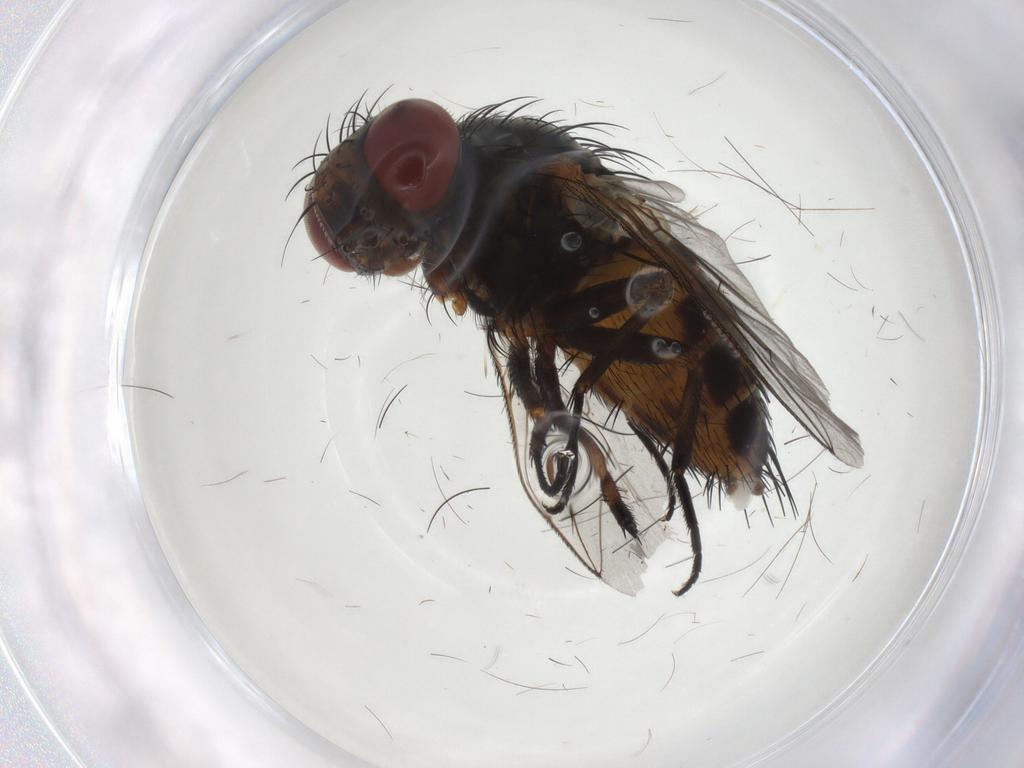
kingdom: Animalia
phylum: Arthropoda
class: Insecta
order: Diptera
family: Sarcophagidae
